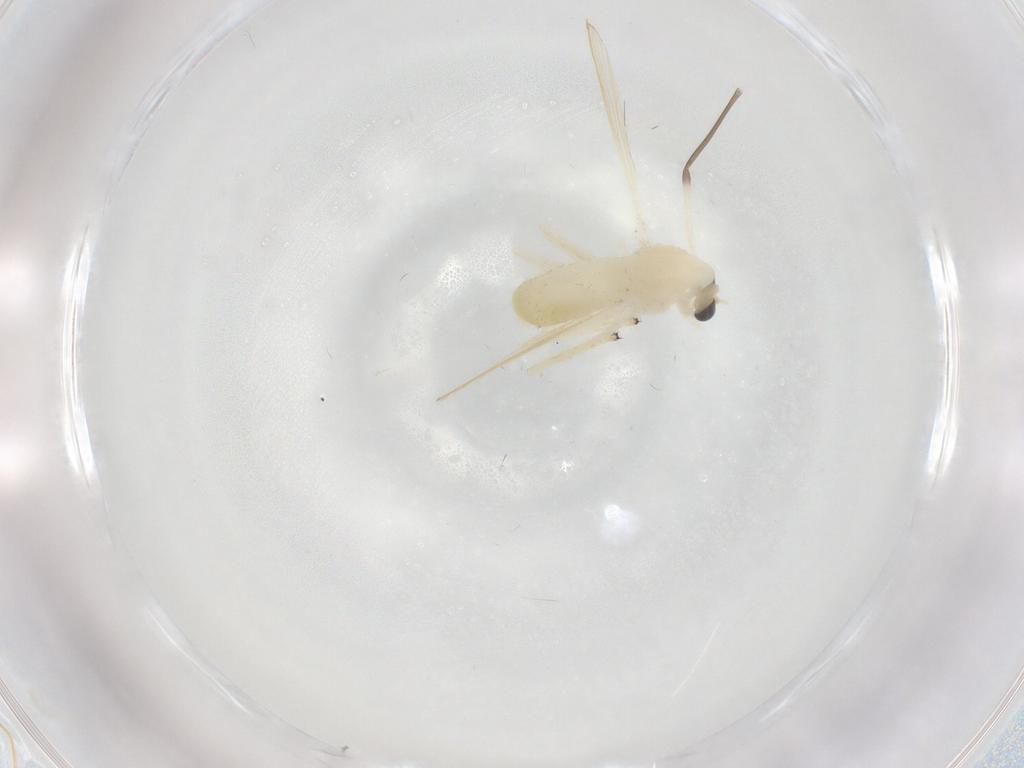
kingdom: Animalia
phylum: Arthropoda
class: Insecta
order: Diptera
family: Chironomidae
